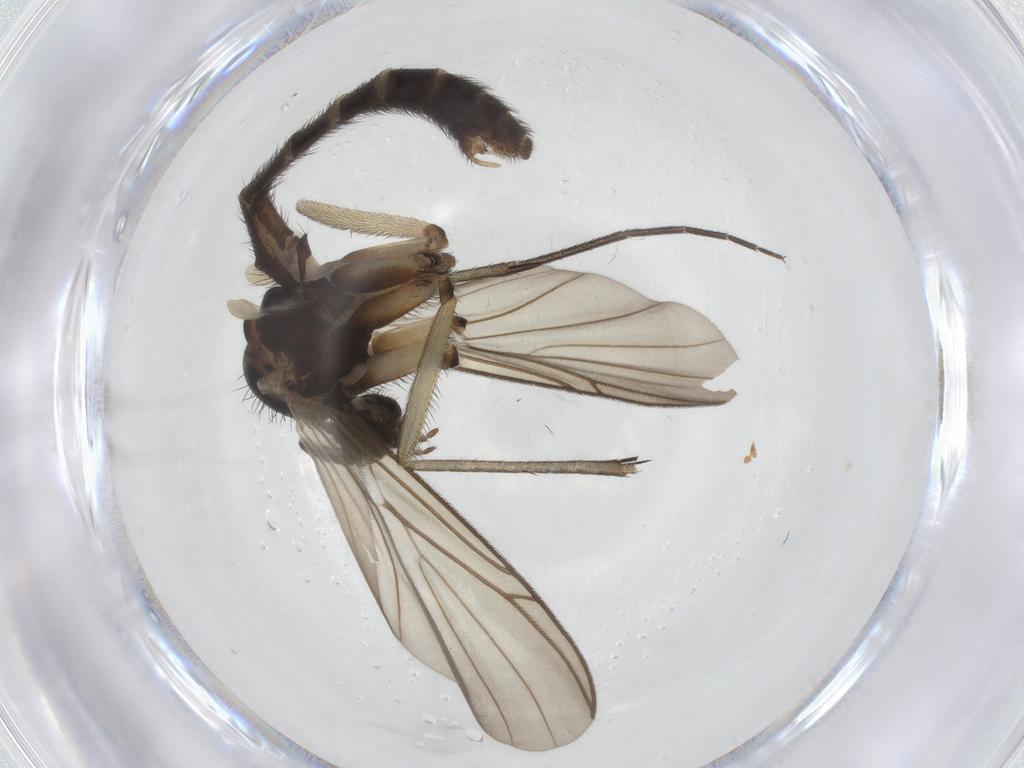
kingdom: Animalia
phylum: Arthropoda
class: Insecta
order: Diptera
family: Keroplatidae
